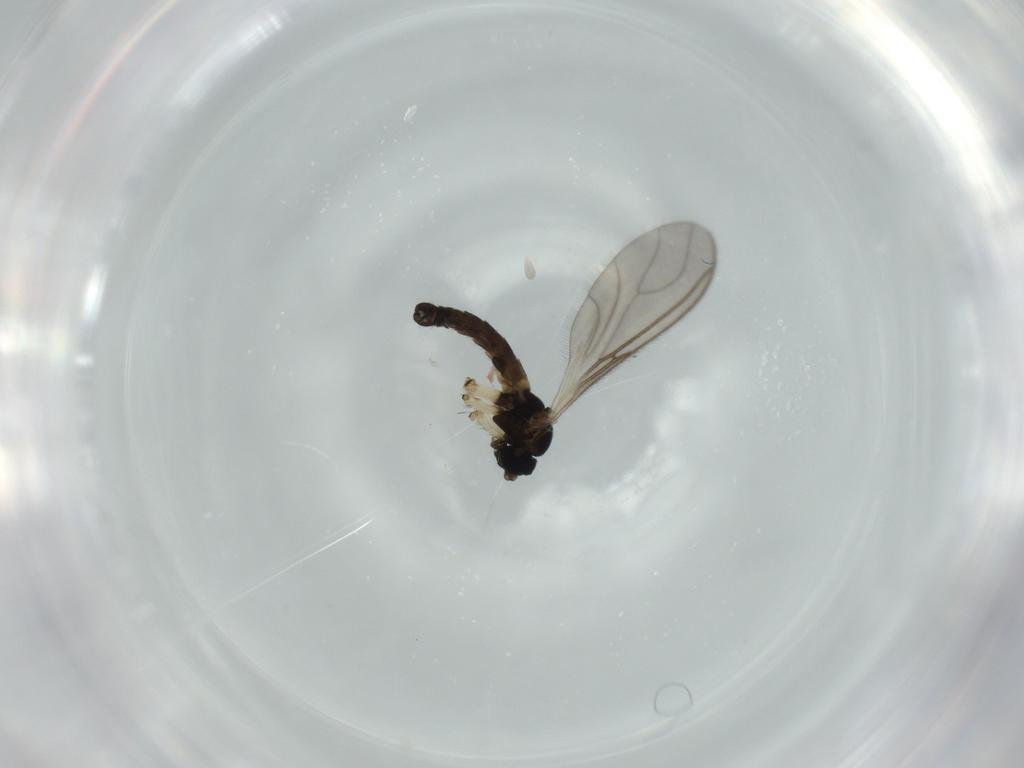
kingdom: Animalia
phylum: Arthropoda
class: Insecta
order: Diptera
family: Sciaridae
